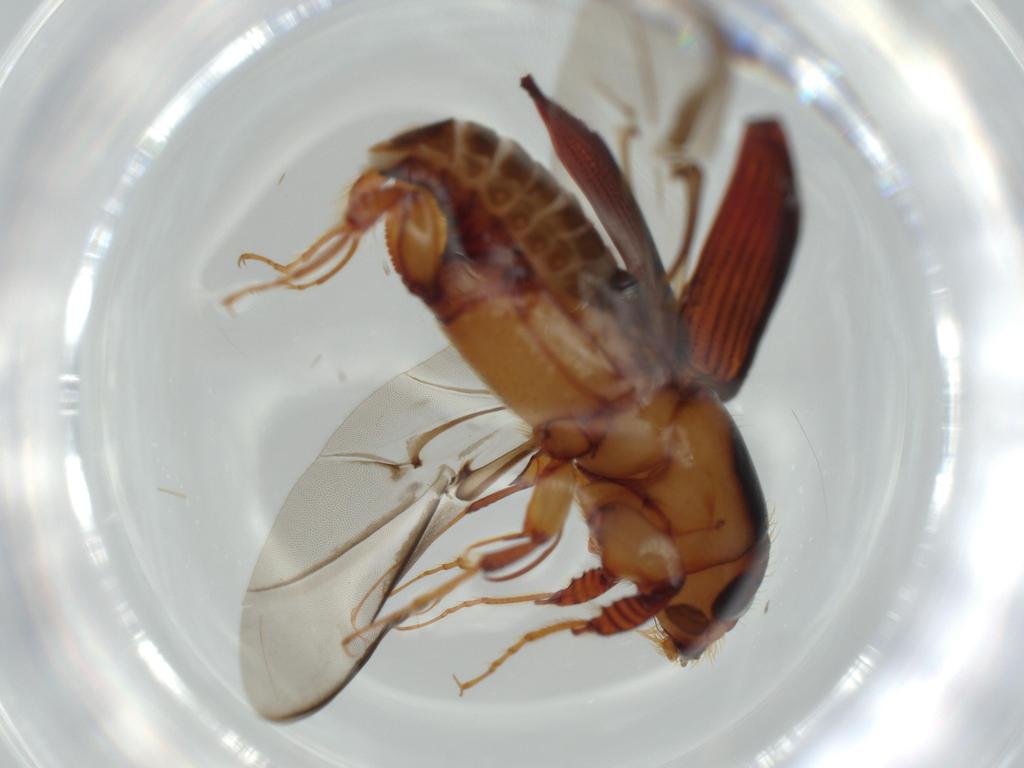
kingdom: Animalia
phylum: Arthropoda
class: Insecta
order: Coleoptera
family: Curculionidae
